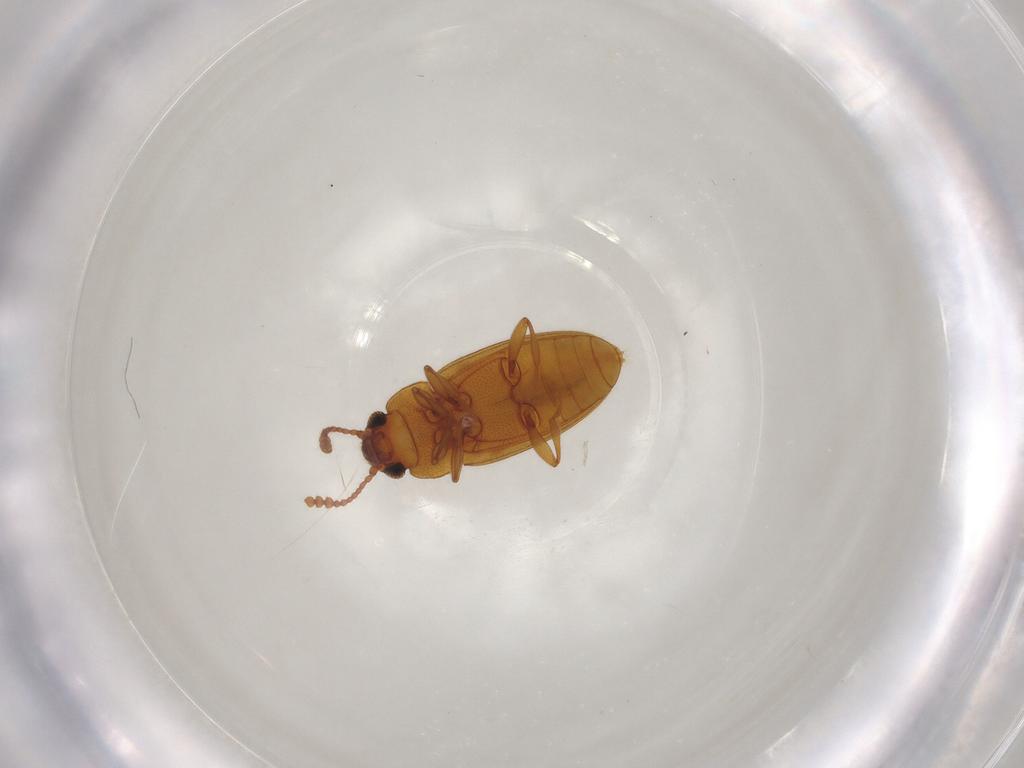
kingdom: Animalia
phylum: Arthropoda
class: Insecta
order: Coleoptera
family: Erotylidae
